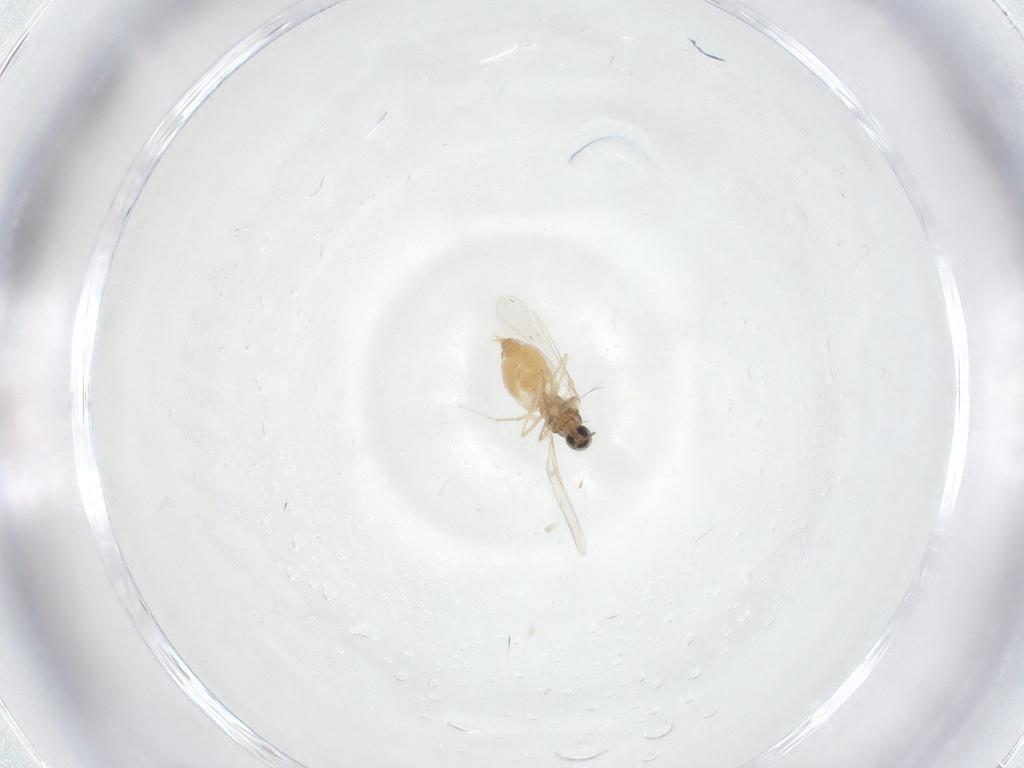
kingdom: Animalia
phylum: Arthropoda
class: Insecta
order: Diptera
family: Cecidomyiidae
